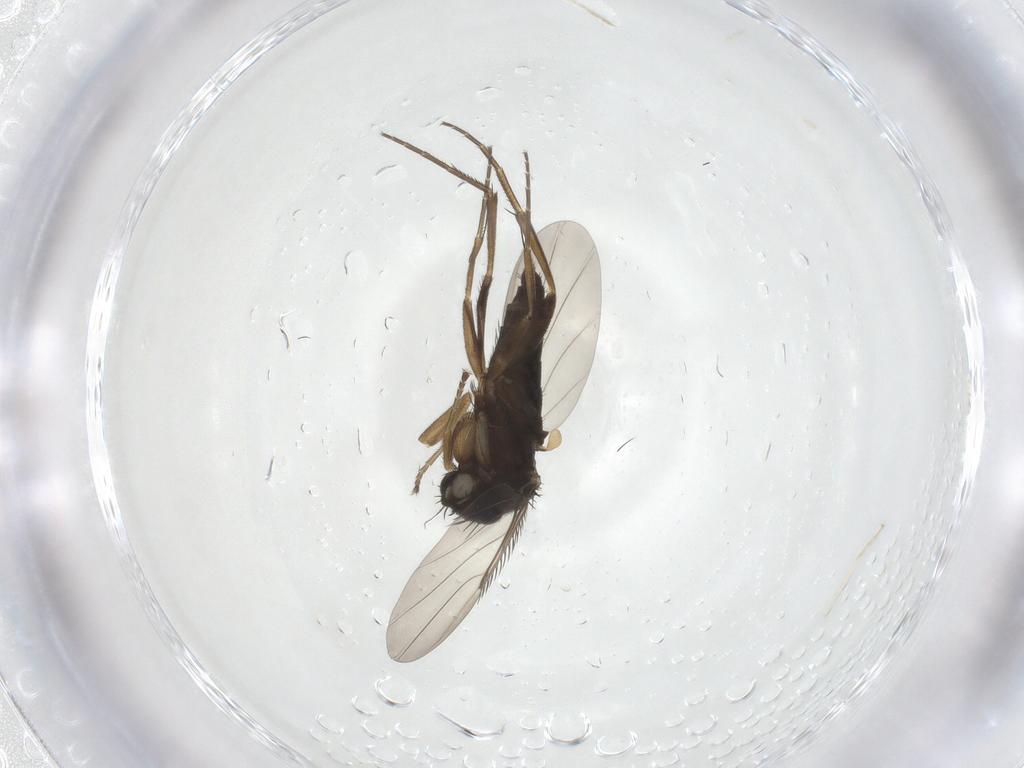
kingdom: Animalia
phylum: Arthropoda
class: Insecta
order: Diptera
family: Phoridae
